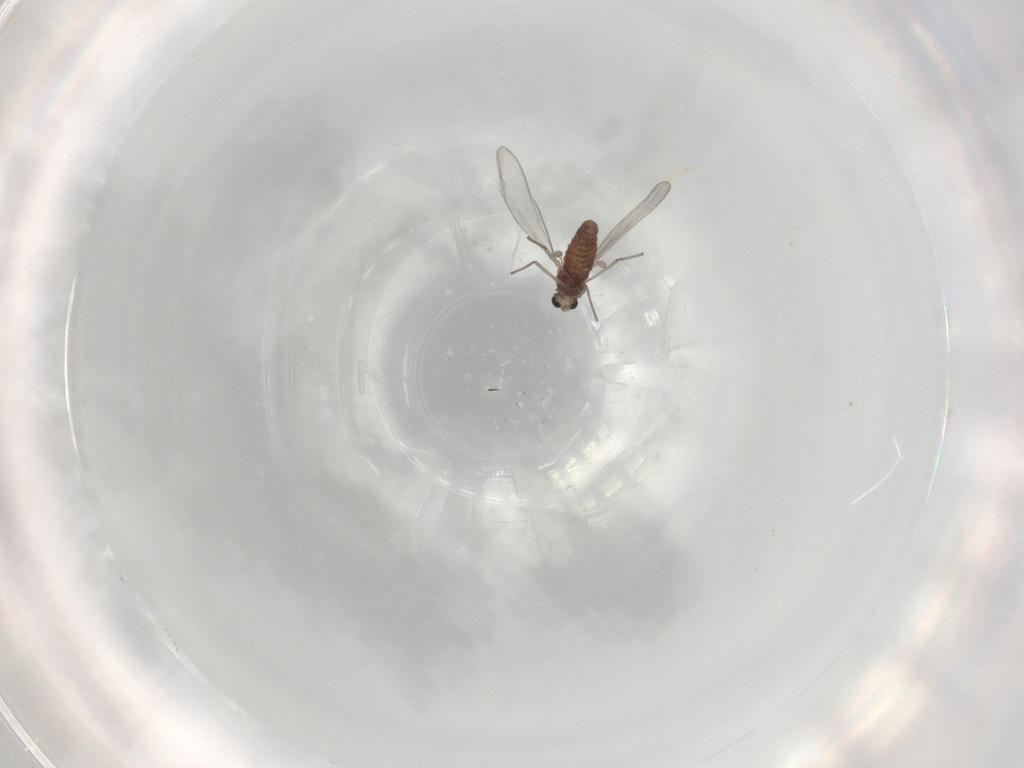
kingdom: Animalia
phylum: Arthropoda
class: Insecta
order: Diptera
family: Chironomidae
